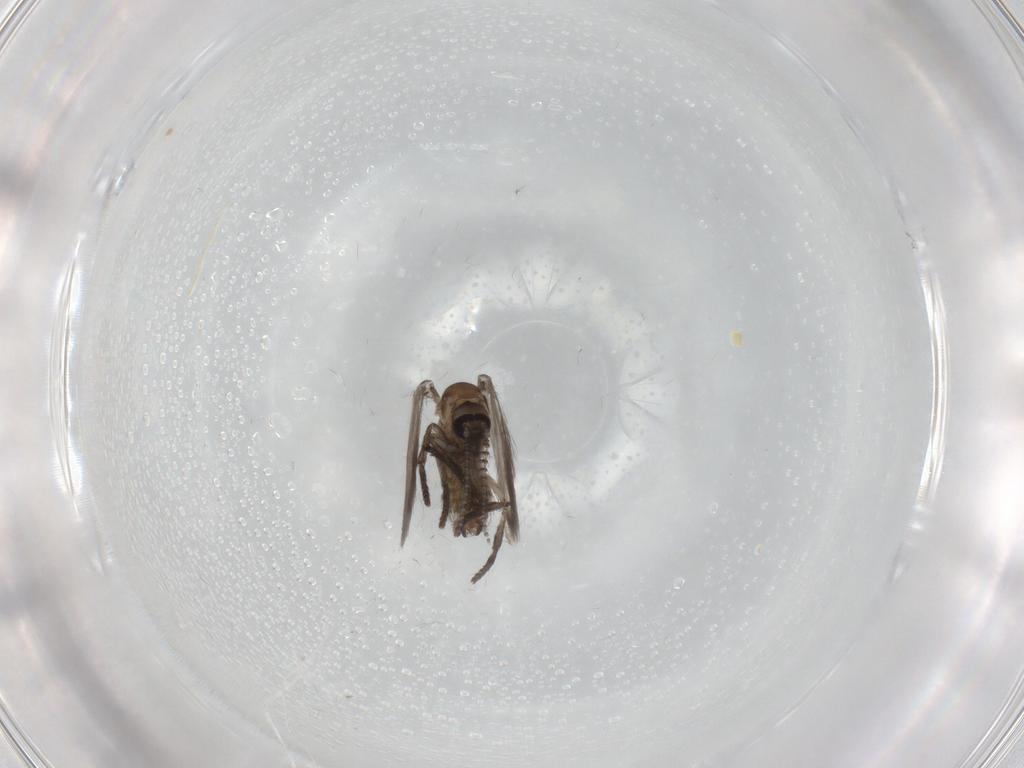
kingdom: Animalia
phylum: Arthropoda
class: Insecta
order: Diptera
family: Psychodidae
